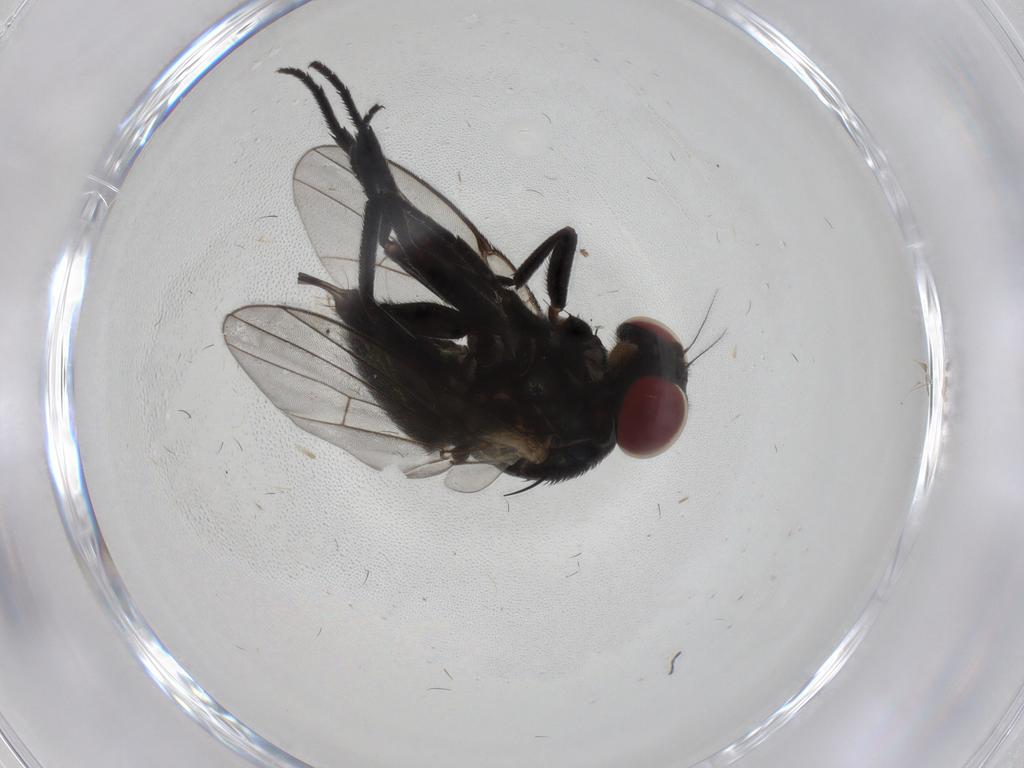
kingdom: Animalia
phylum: Arthropoda
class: Insecta
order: Diptera
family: Agromyzidae
